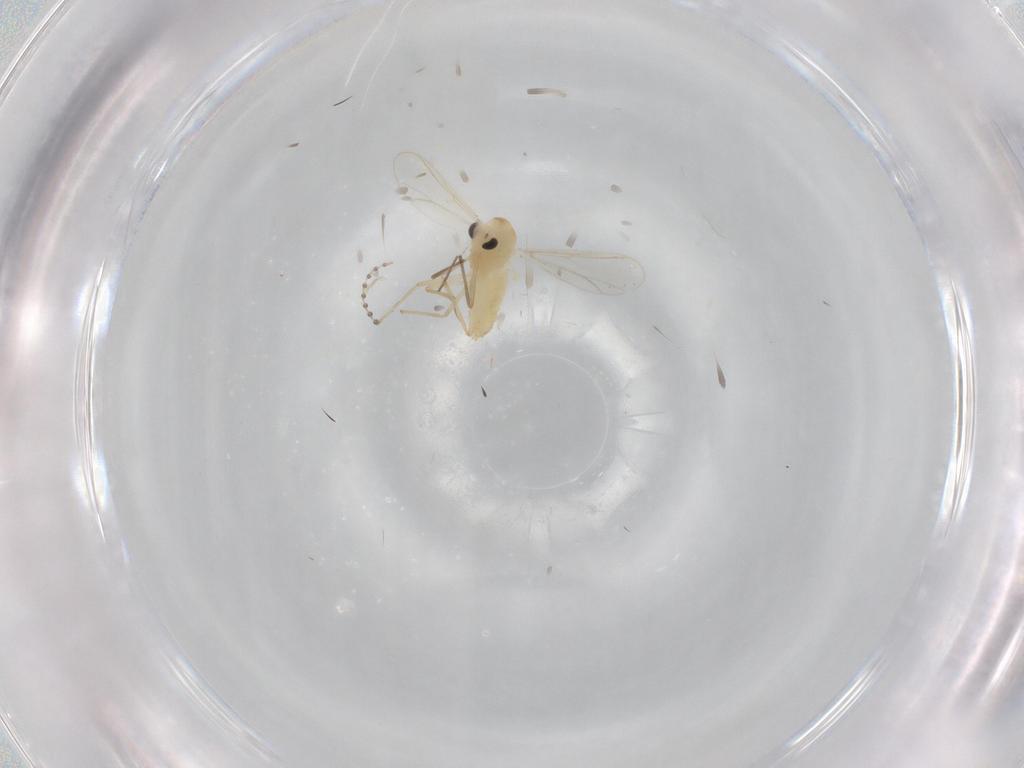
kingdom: Animalia
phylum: Arthropoda
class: Insecta
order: Diptera
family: Chironomidae
